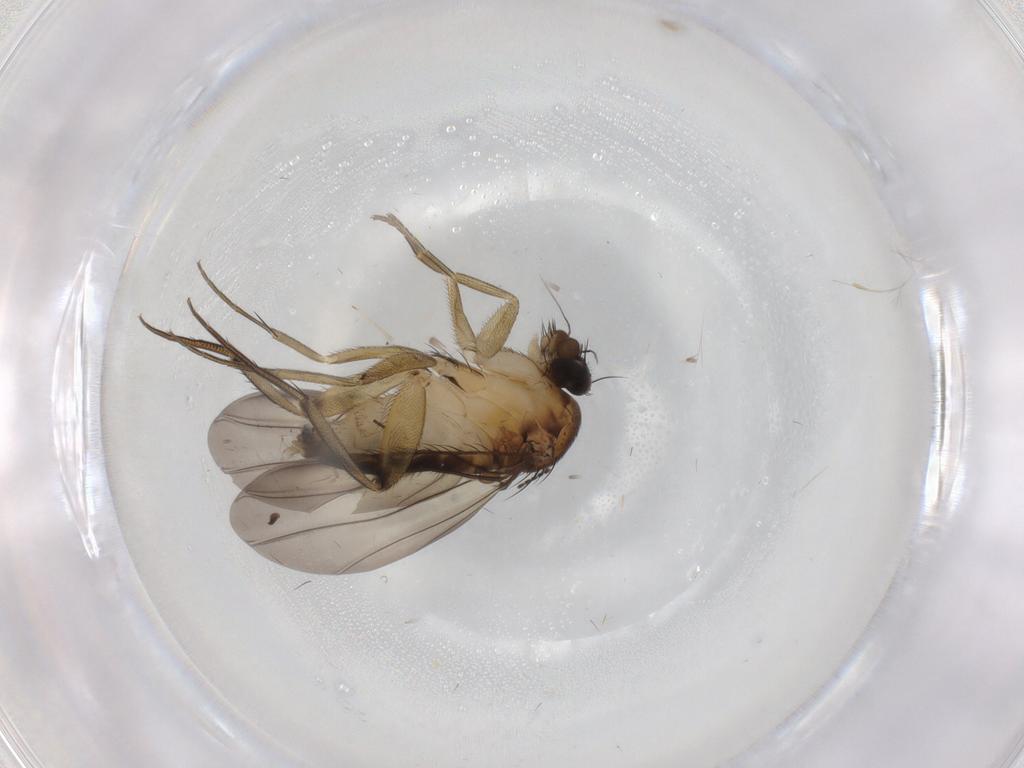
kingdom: Animalia
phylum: Arthropoda
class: Insecta
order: Diptera
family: Phoridae
